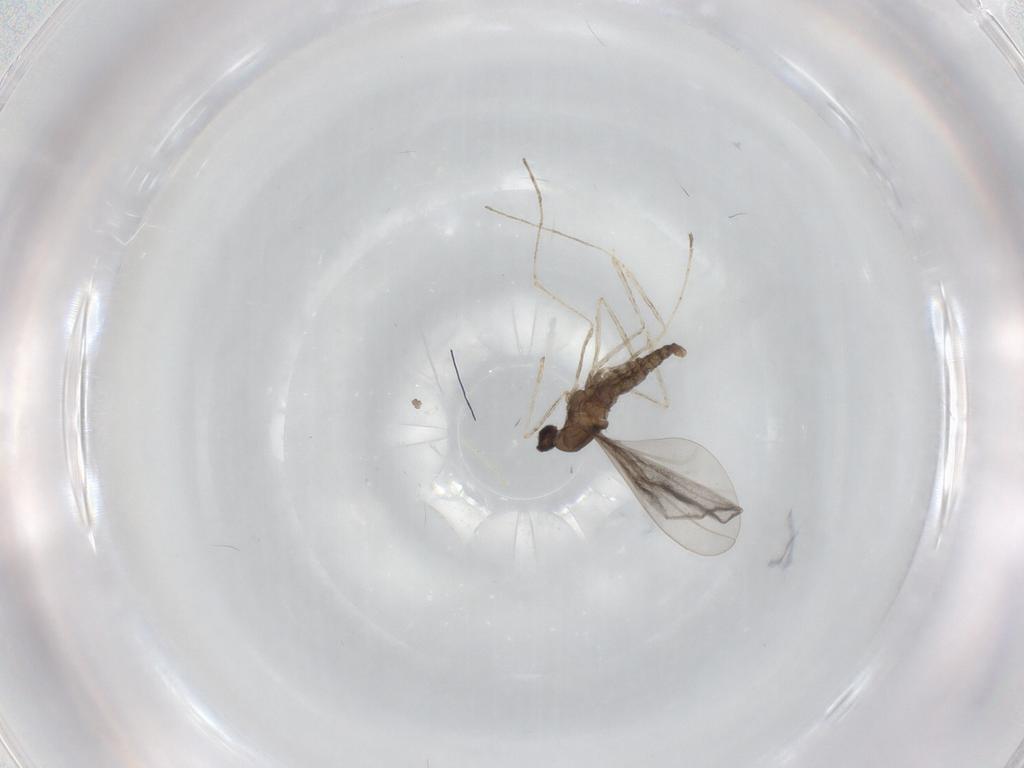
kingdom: Animalia
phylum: Arthropoda
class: Insecta
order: Diptera
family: Cecidomyiidae
